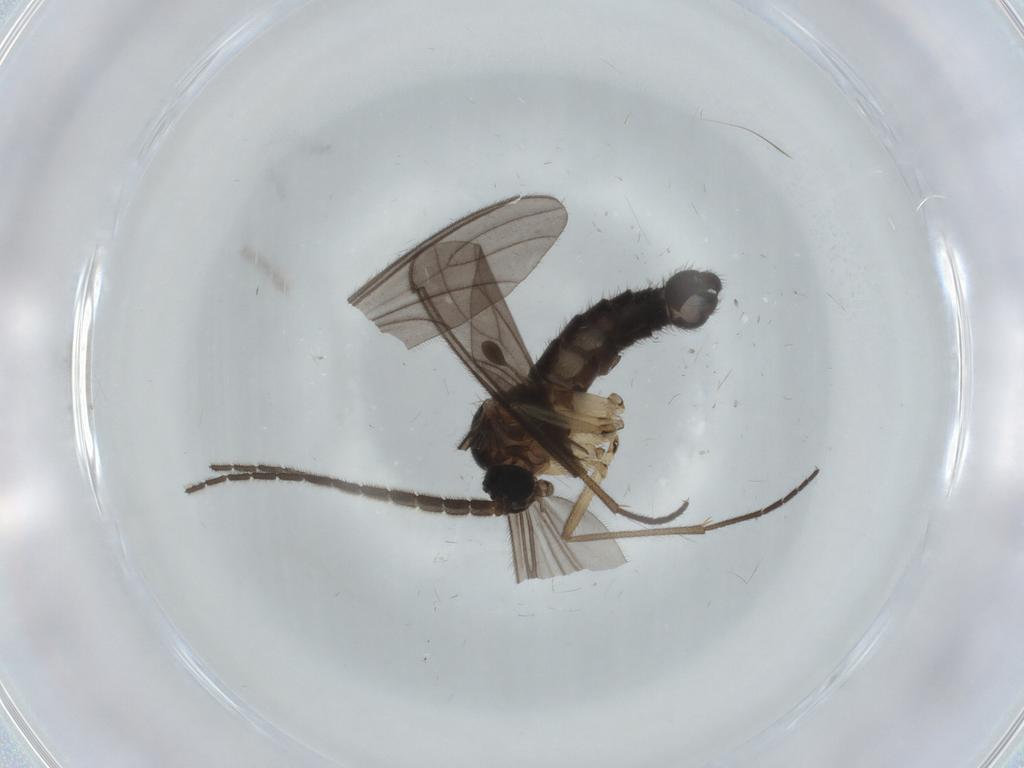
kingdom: Animalia
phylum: Arthropoda
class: Insecta
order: Diptera
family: Sciaridae
